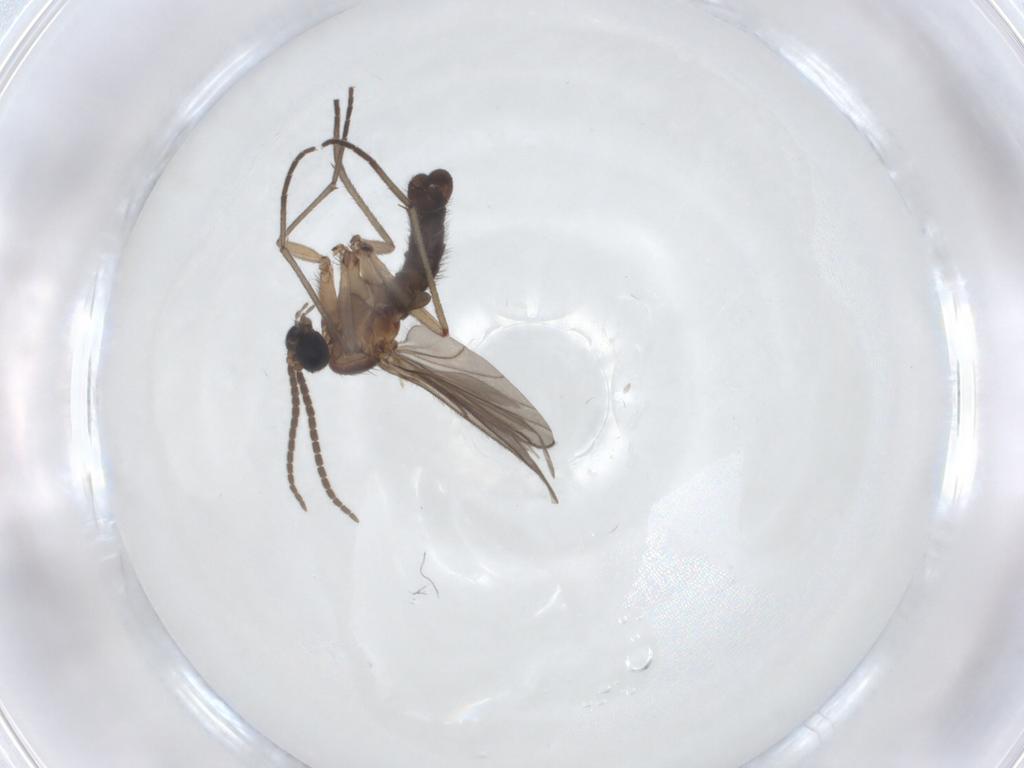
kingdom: Animalia
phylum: Arthropoda
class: Insecta
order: Diptera
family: Sciaridae
